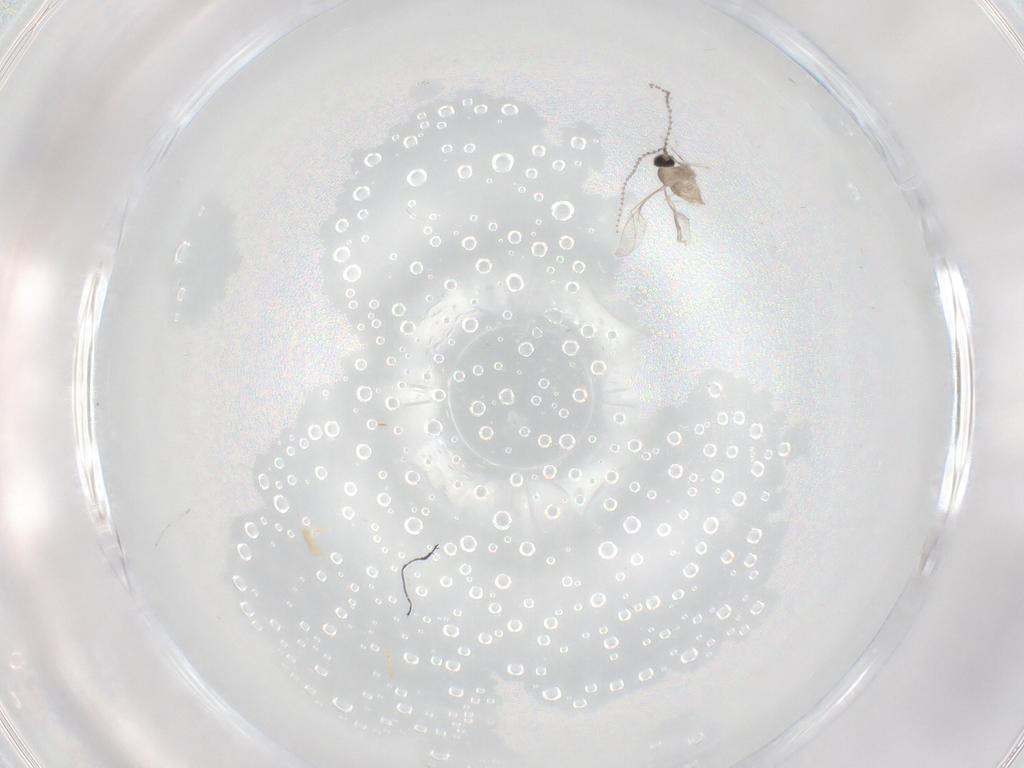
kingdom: Animalia
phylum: Arthropoda
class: Insecta
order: Diptera
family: Cecidomyiidae
